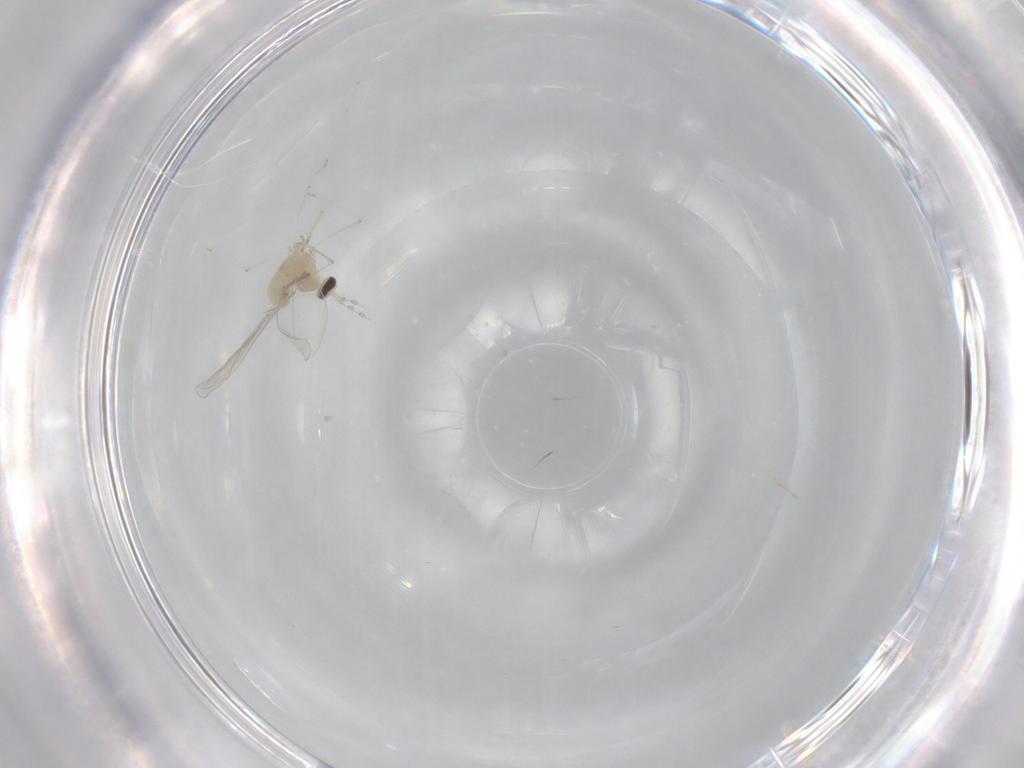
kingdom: Animalia
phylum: Arthropoda
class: Insecta
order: Diptera
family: Cecidomyiidae
